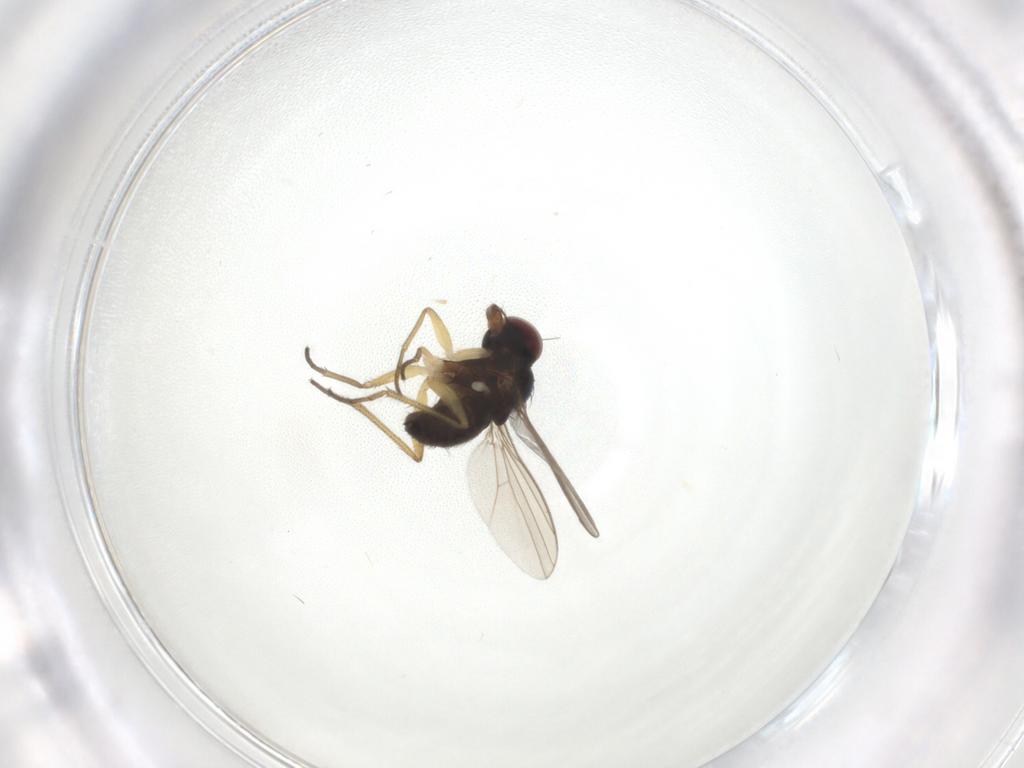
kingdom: Animalia
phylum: Arthropoda
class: Insecta
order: Diptera
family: Dolichopodidae
